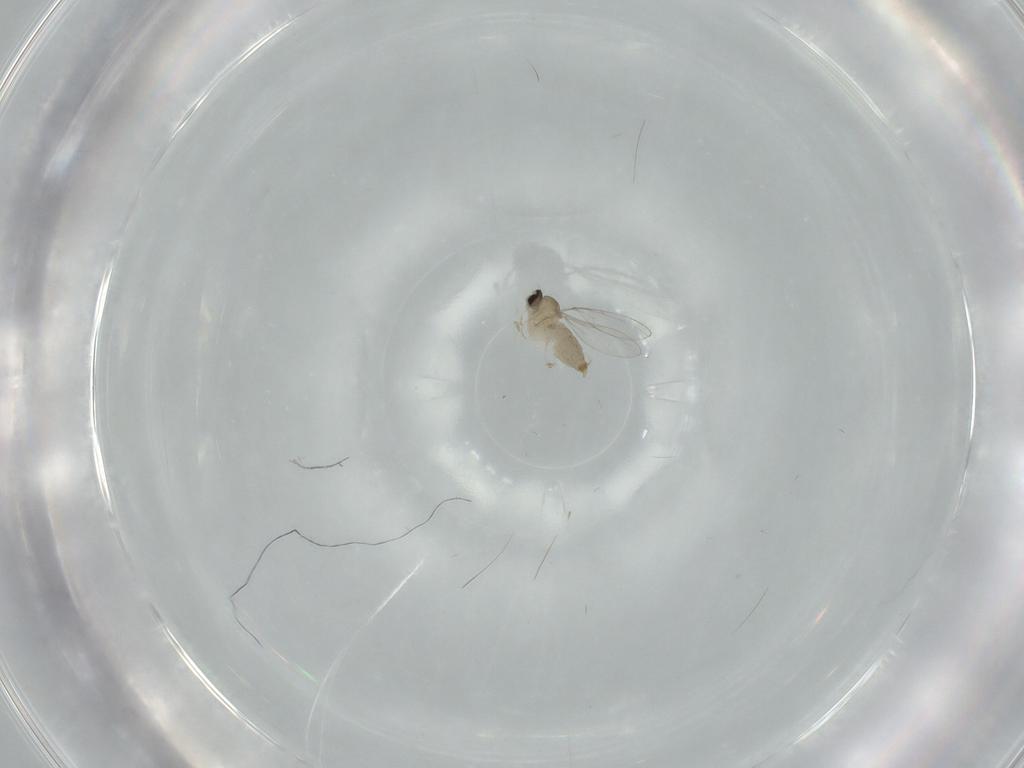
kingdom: Animalia
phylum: Arthropoda
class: Insecta
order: Diptera
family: Cecidomyiidae
